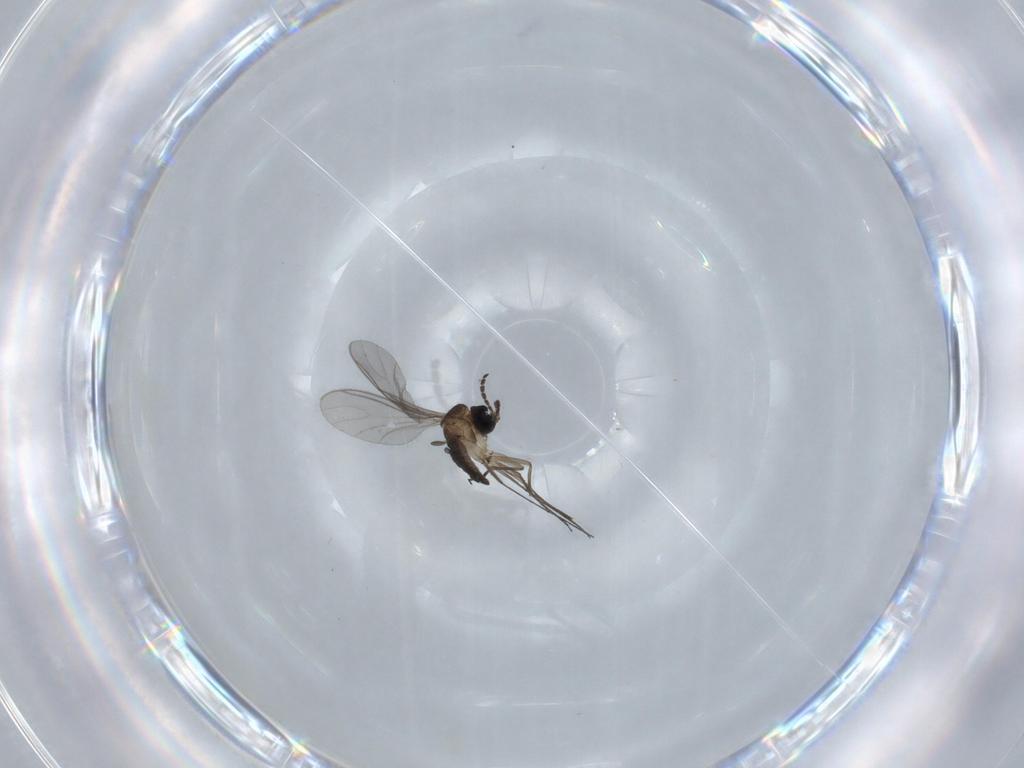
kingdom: Animalia
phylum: Arthropoda
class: Insecta
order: Diptera
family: Sciaridae
